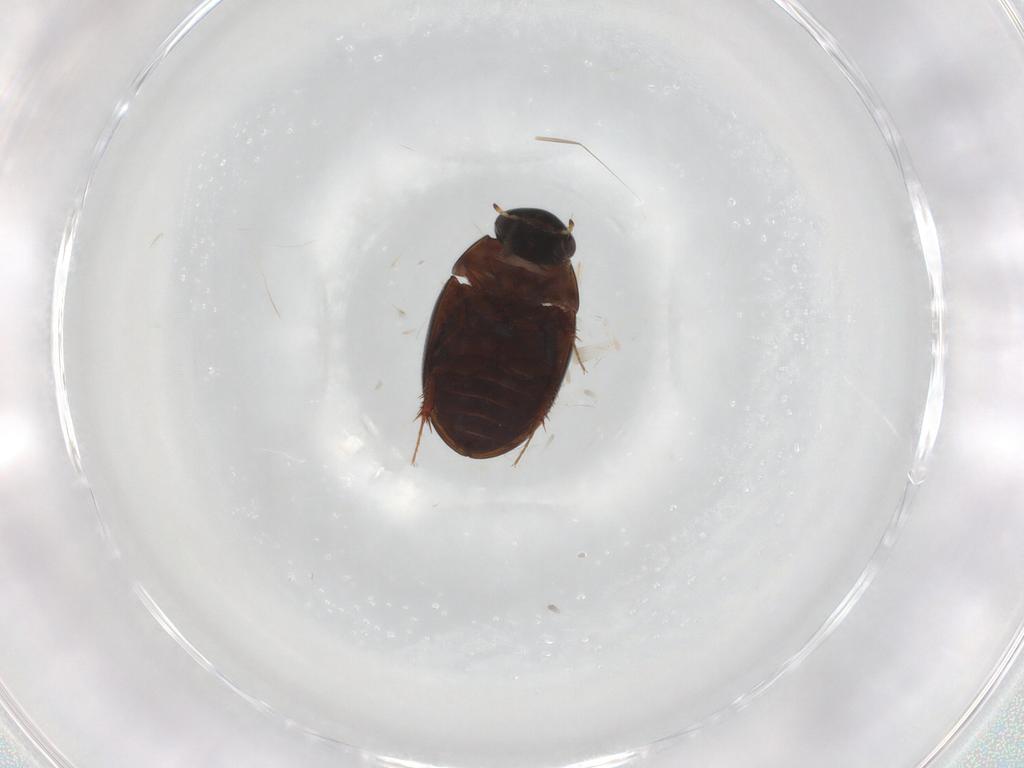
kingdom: Animalia
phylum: Arthropoda
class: Insecta
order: Coleoptera
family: Hydrophilidae
